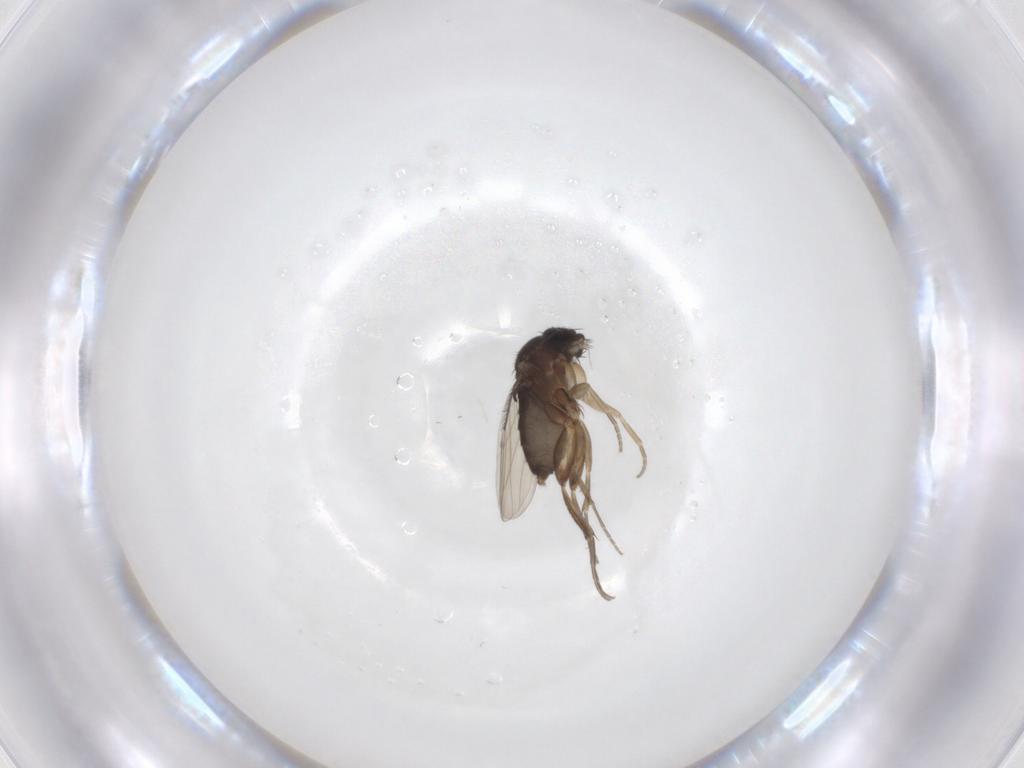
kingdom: Animalia
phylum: Arthropoda
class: Insecta
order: Diptera
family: Phoridae
